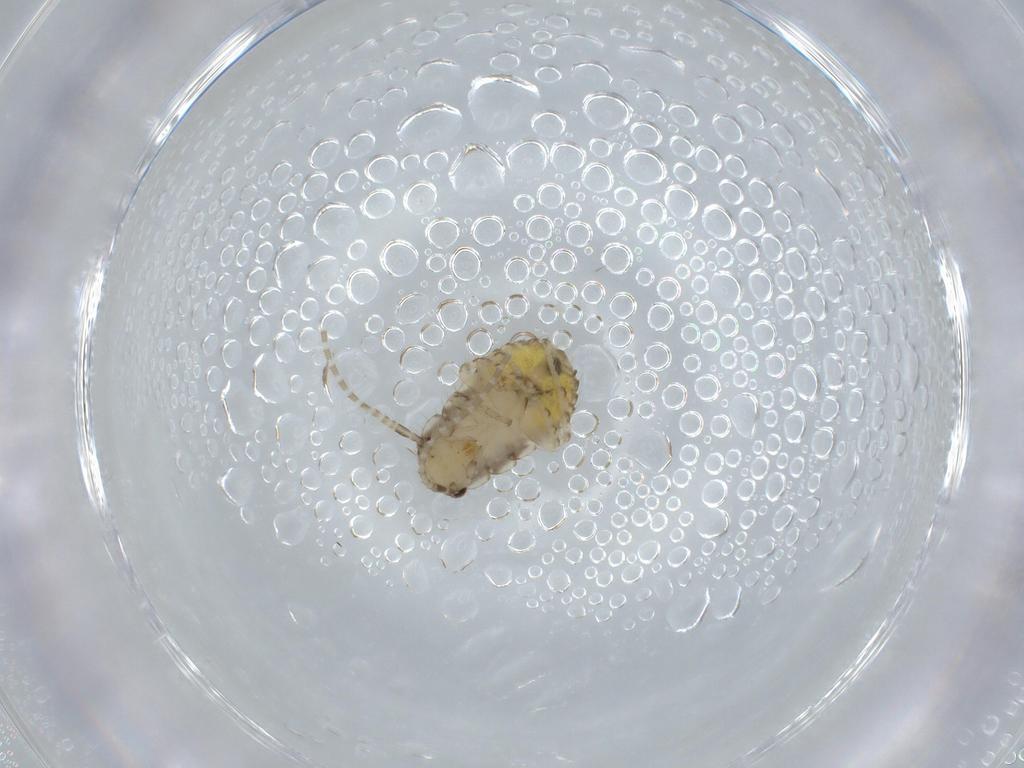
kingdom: Animalia
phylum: Arthropoda
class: Insecta
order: Blattodea
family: Ectobiidae
